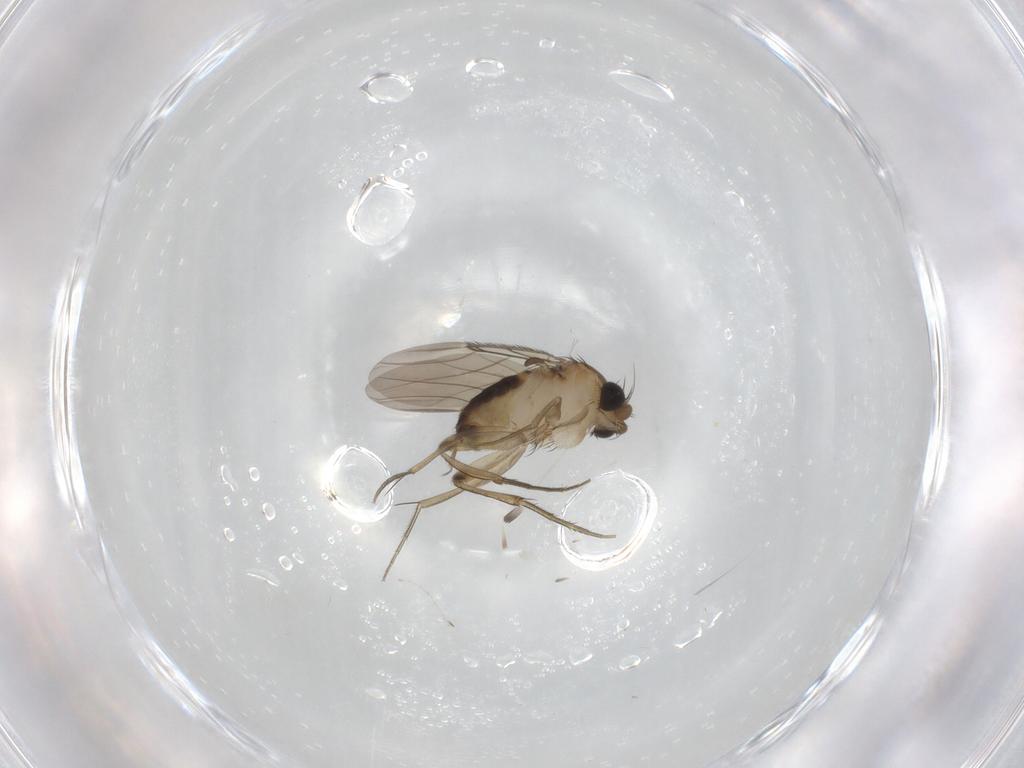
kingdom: Animalia
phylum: Arthropoda
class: Insecta
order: Diptera
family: Phoridae
